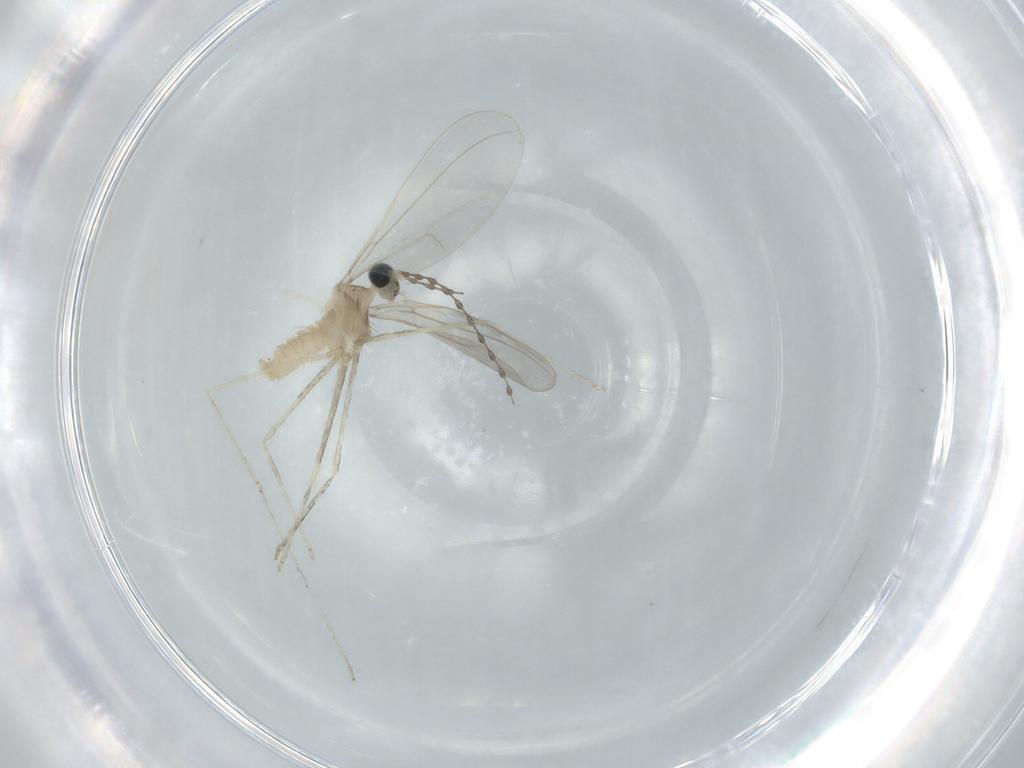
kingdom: Animalia
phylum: Arthropoda
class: Insecta
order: Diptera
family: Cecidomyiidae
